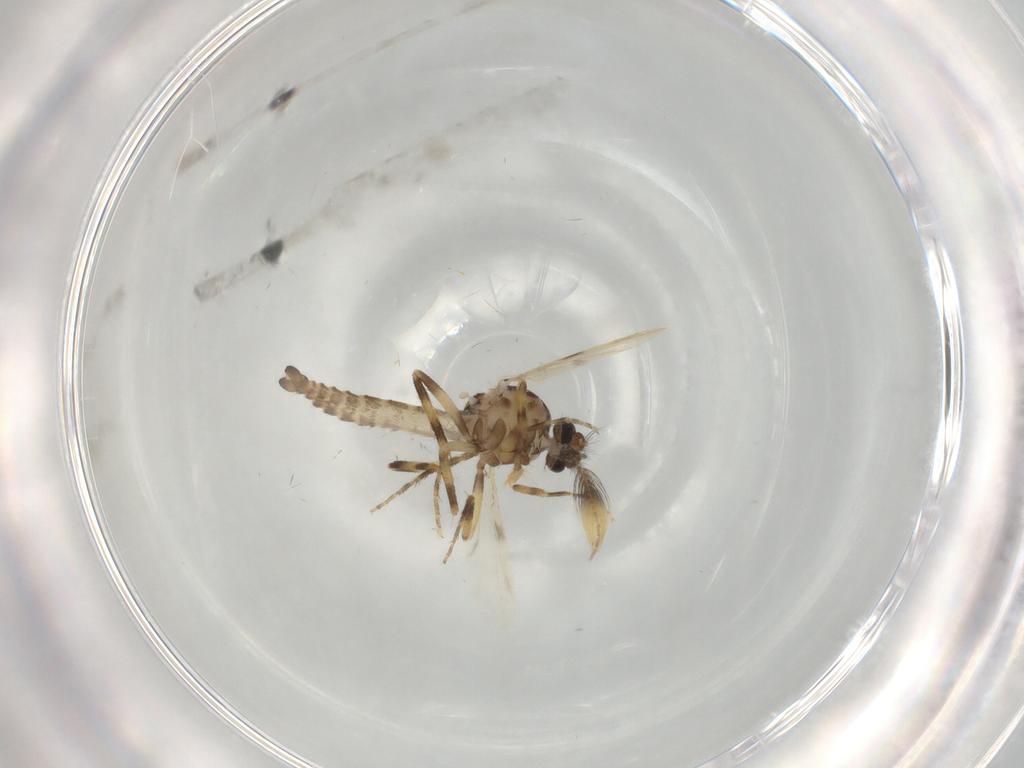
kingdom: Animalia
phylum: Arthropoda
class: Insecta
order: Diptera
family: Ceratopogonidae
